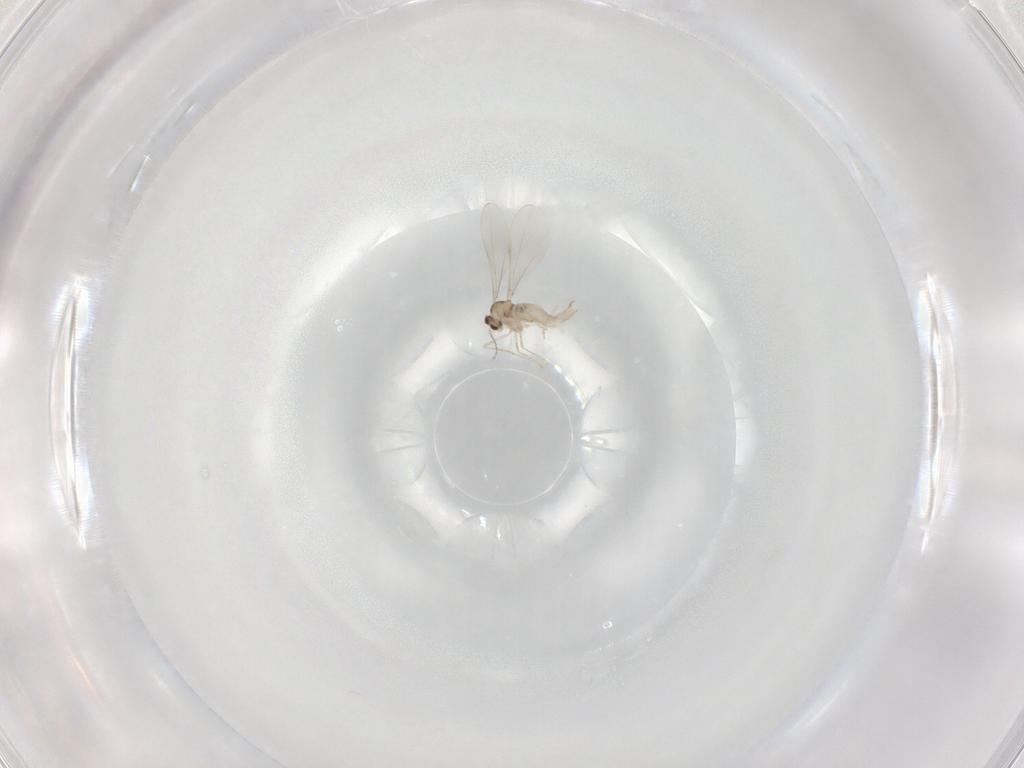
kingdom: Animalia
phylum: Arthropoda
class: Insecta
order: Diptera
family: Cecidomyiidae
